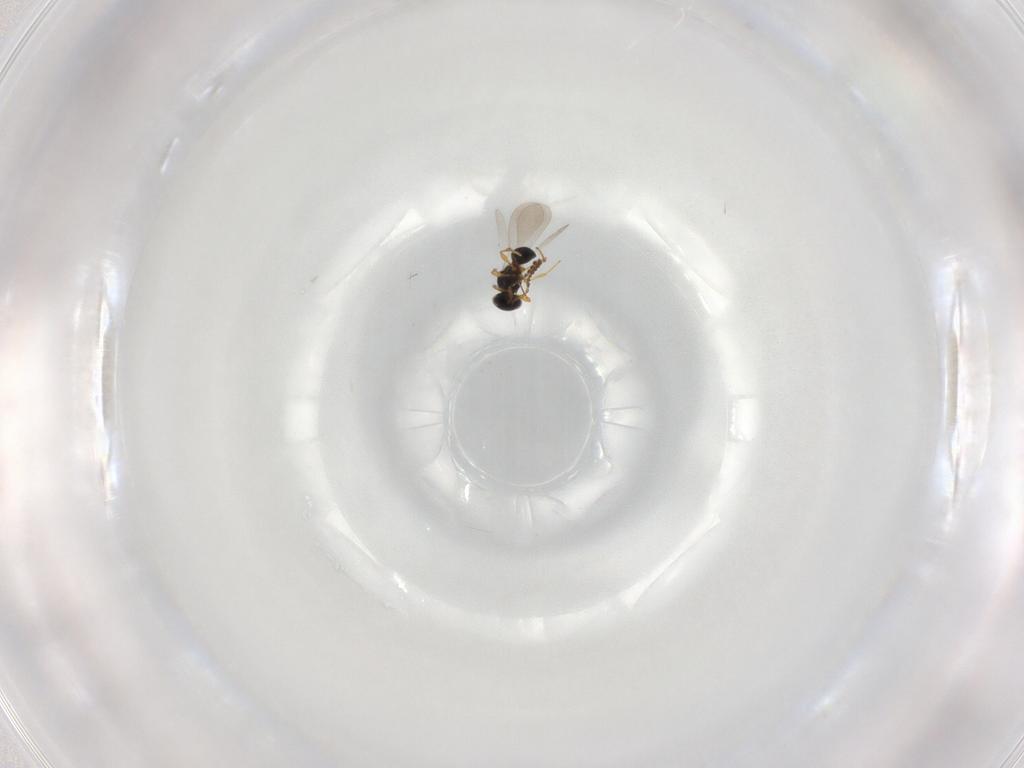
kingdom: Animalia
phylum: Arthropoda
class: Insecta
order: Hymenoptera
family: Platygastridae
